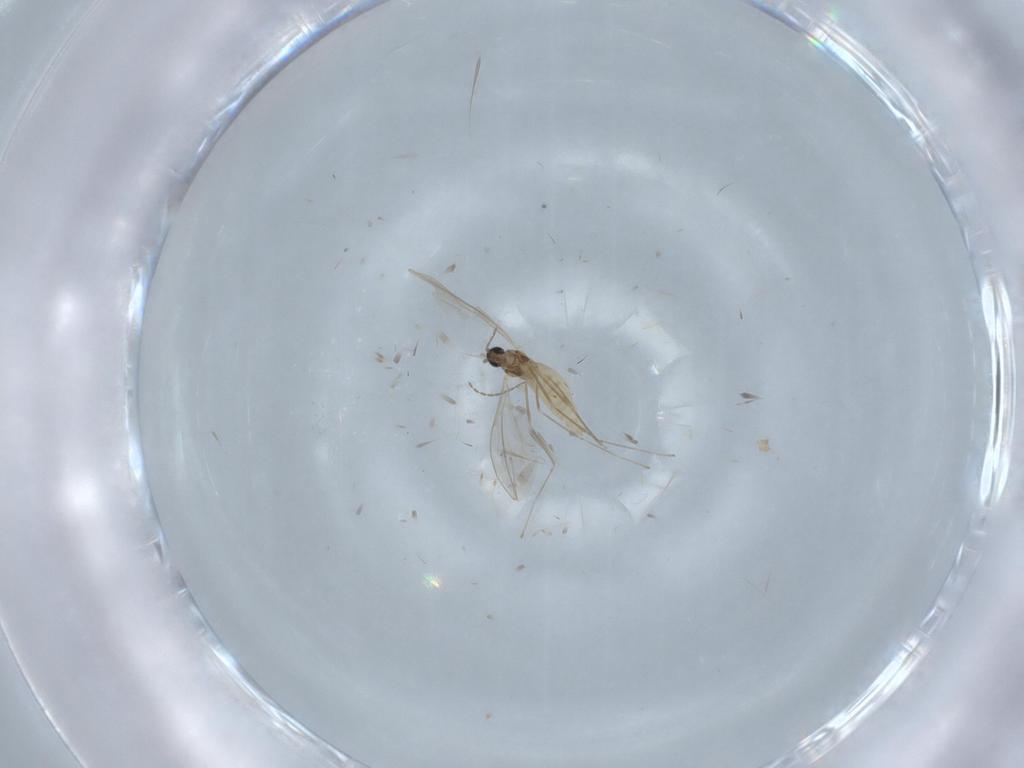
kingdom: Animalia
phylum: Arthropoda
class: Insecta
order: Diptera
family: Cecidomyiidae
